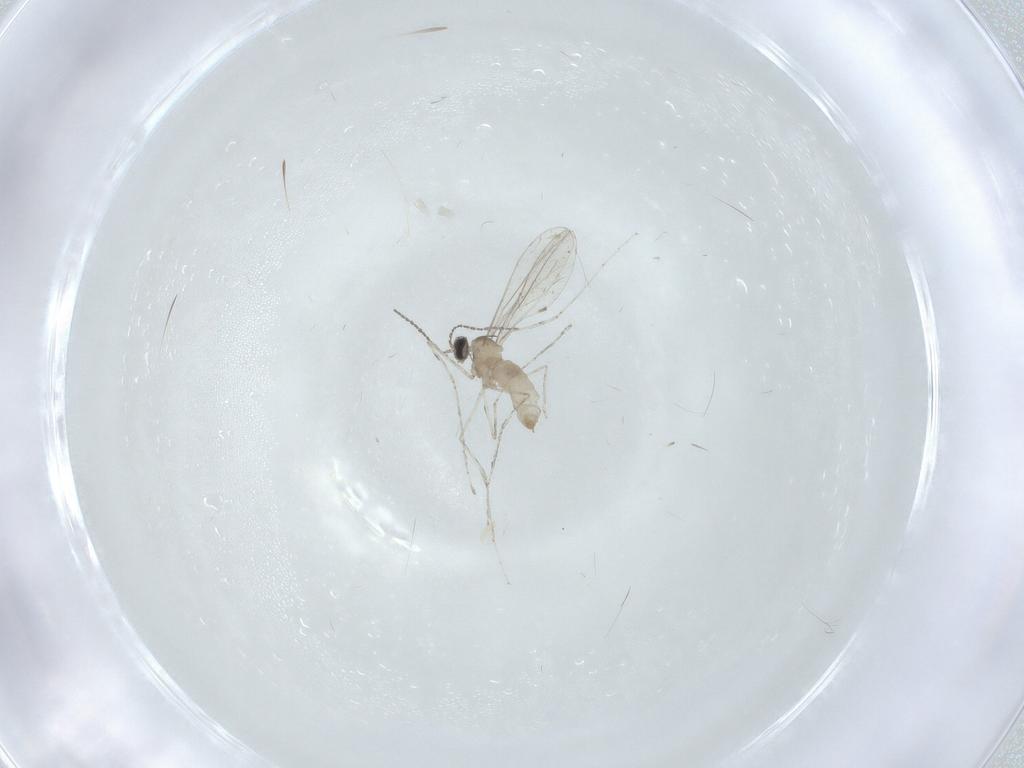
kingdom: Animalia
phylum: Arthropoda
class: Insecta
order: Diptera
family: Cecidomyiidae
